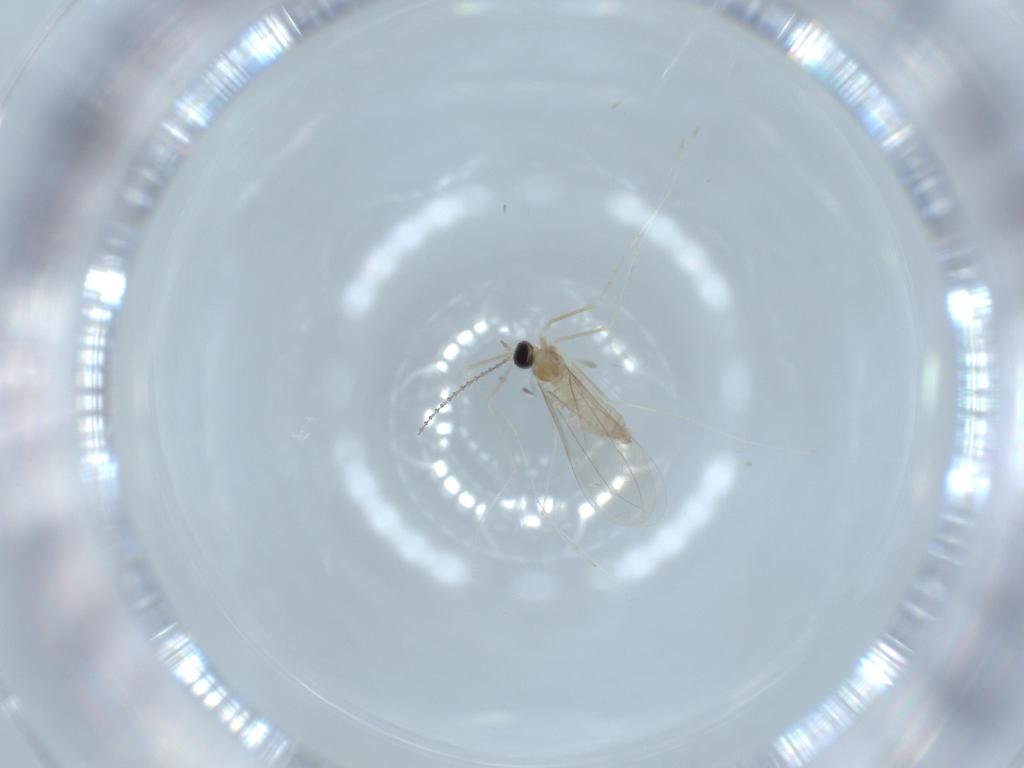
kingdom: Animalia
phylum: Arthropoda
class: Insecta
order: Diptera
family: Cecidomyiidae
